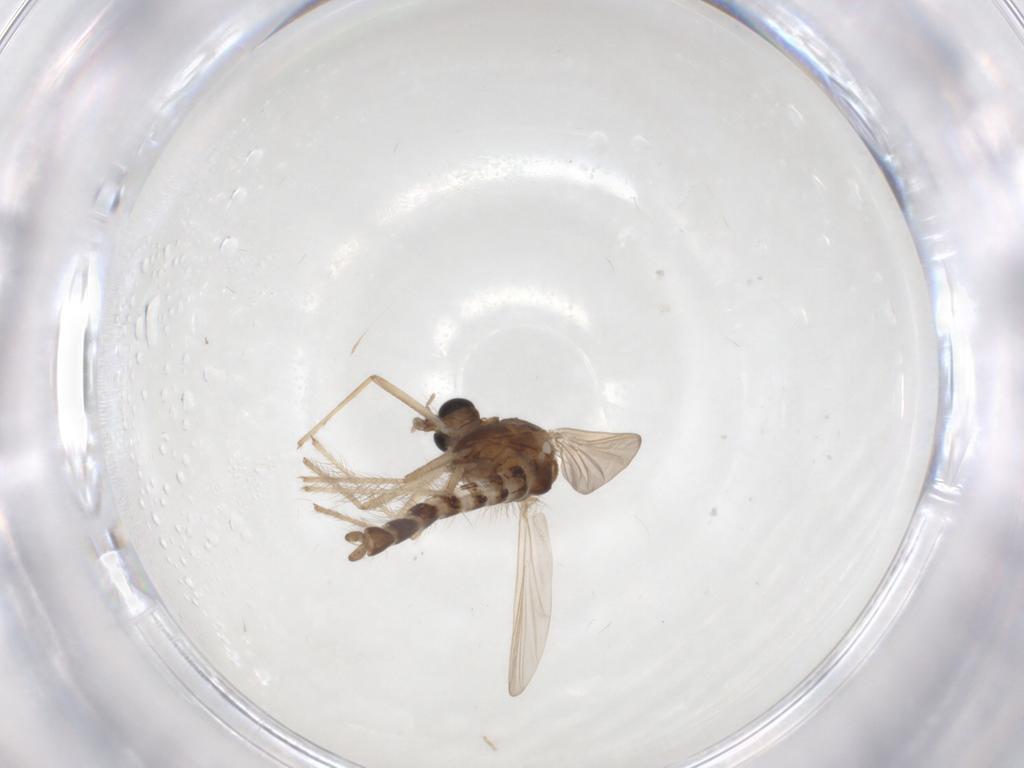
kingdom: Animalia
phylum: Arthropoda
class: Insecta
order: Diptera
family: Chironomidae
